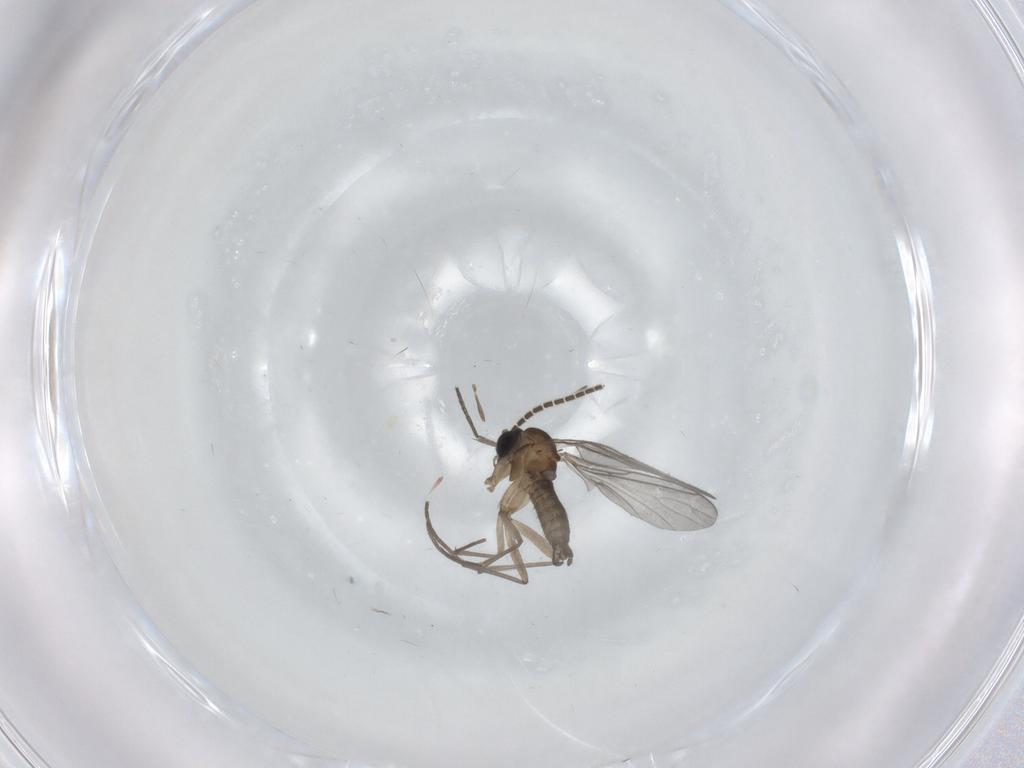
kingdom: Animalia
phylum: Arthropoda
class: Insecta
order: Diptera
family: Sciaridae
